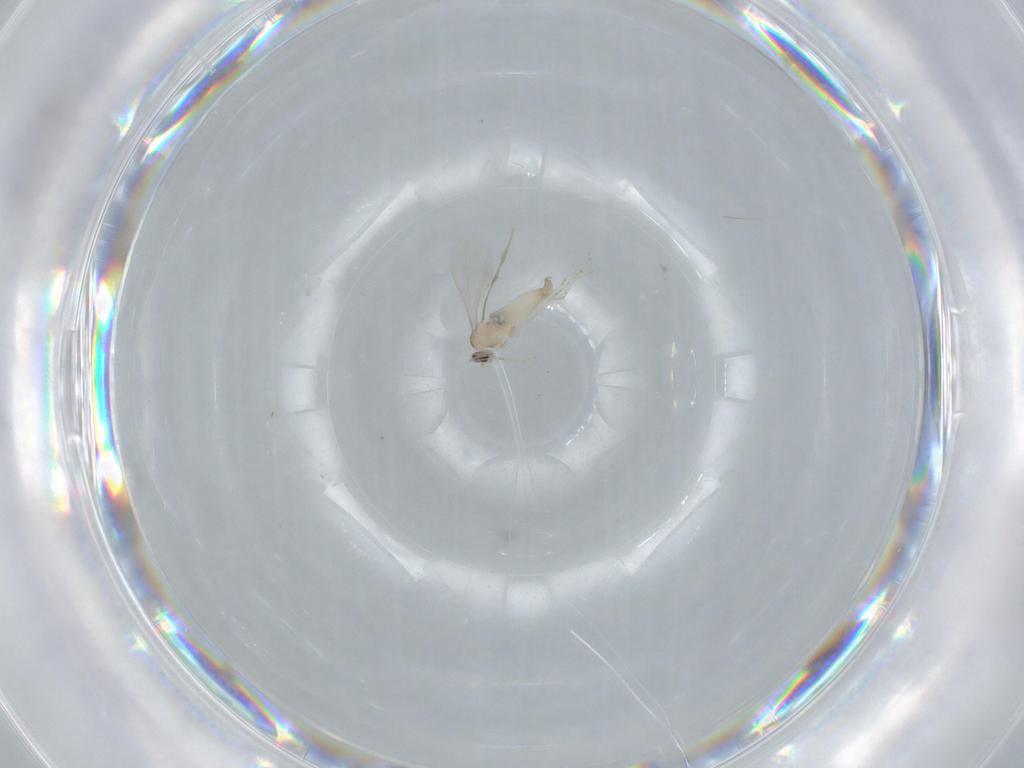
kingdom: Animalia
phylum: Arthropoda
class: Insecta
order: Diptera
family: Cecidomyiidae
